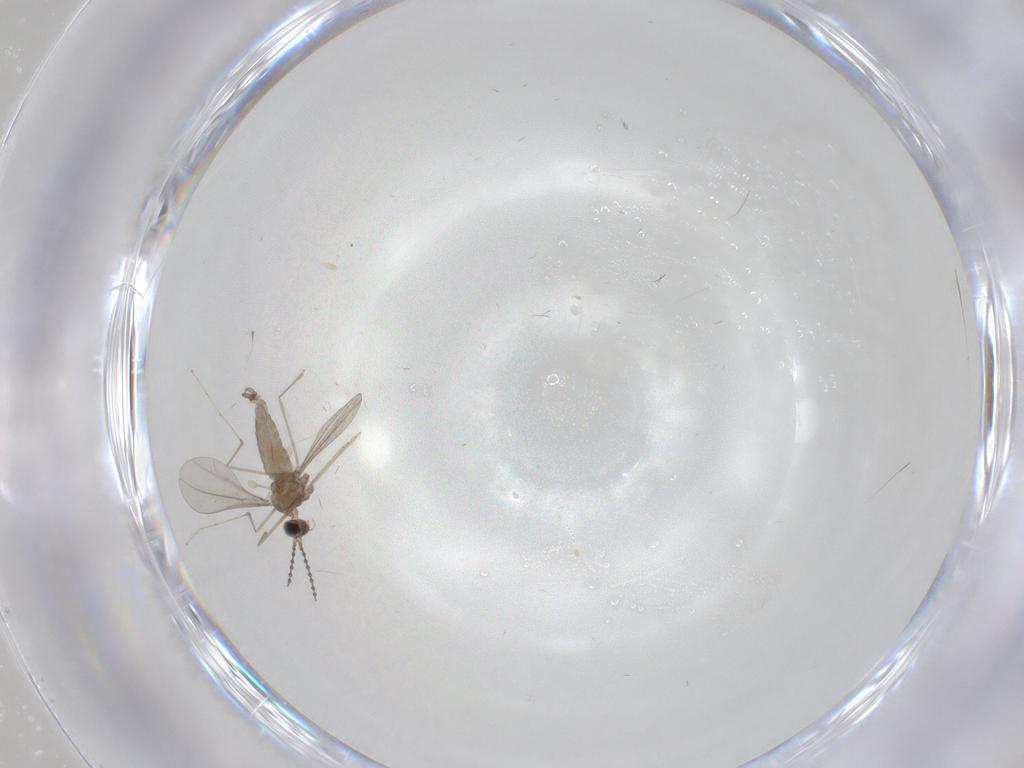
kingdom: Animalia
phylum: Arthropoda
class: Insecta
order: Diptera
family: Cecidomyiidae
